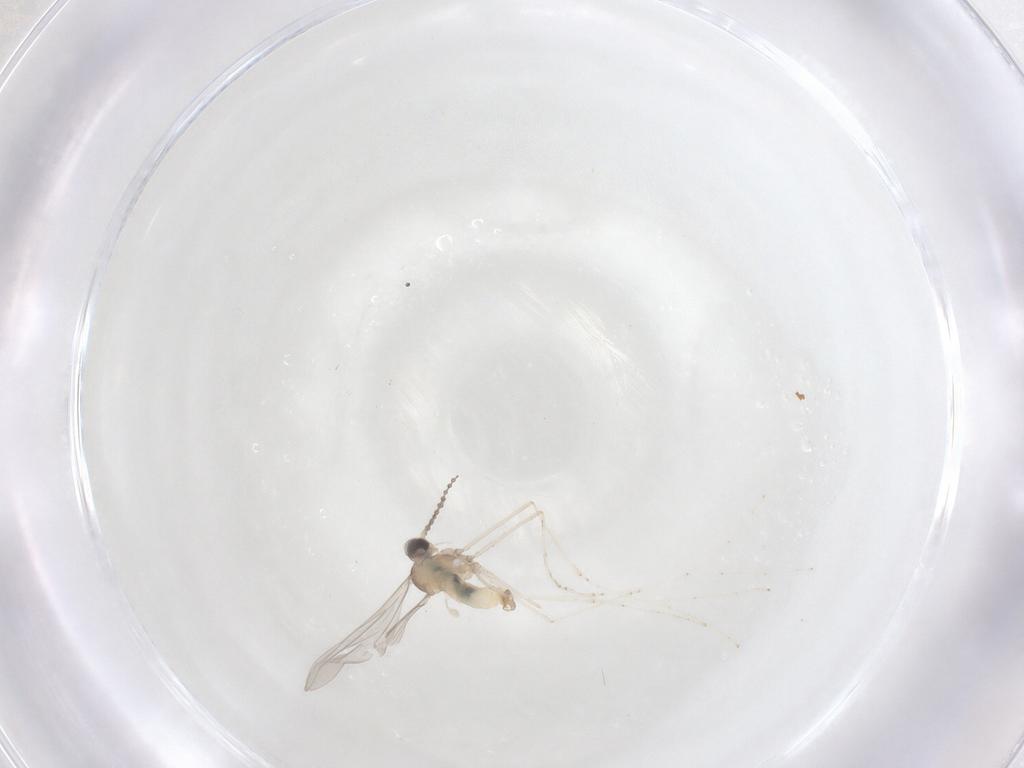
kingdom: Animalia
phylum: Arthropoda
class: Insecta
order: Diptera
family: Cecidomyiidae
